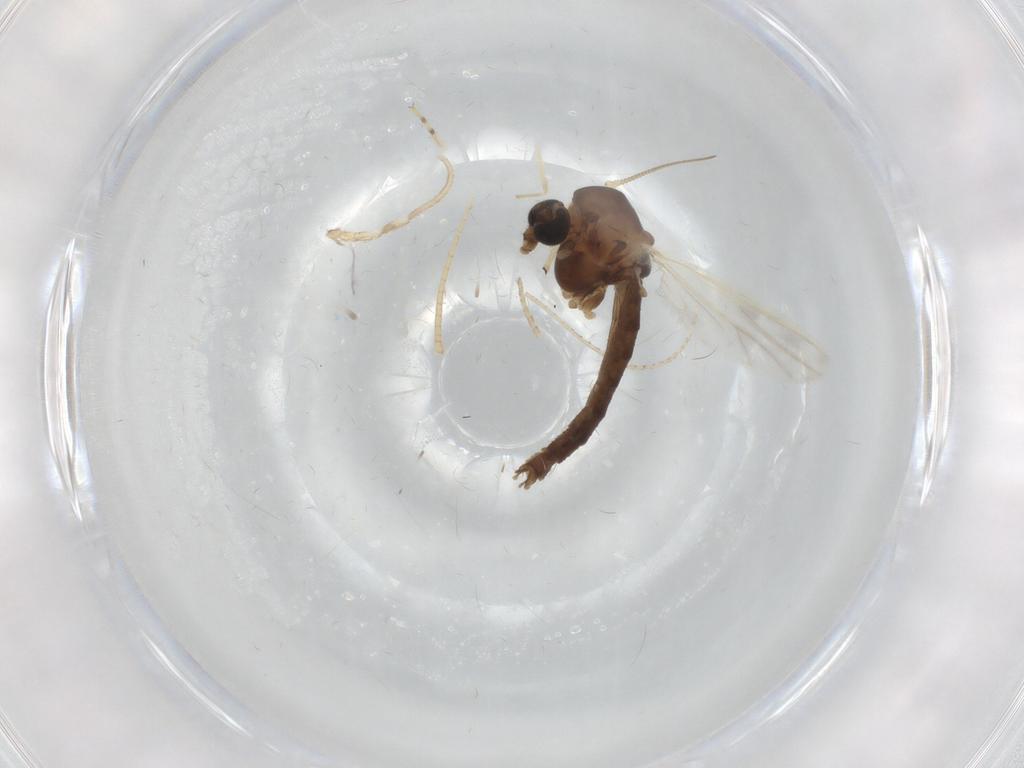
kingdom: Animalia
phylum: Arthropoda
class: Insecta
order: Diptera
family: Chironomidae
